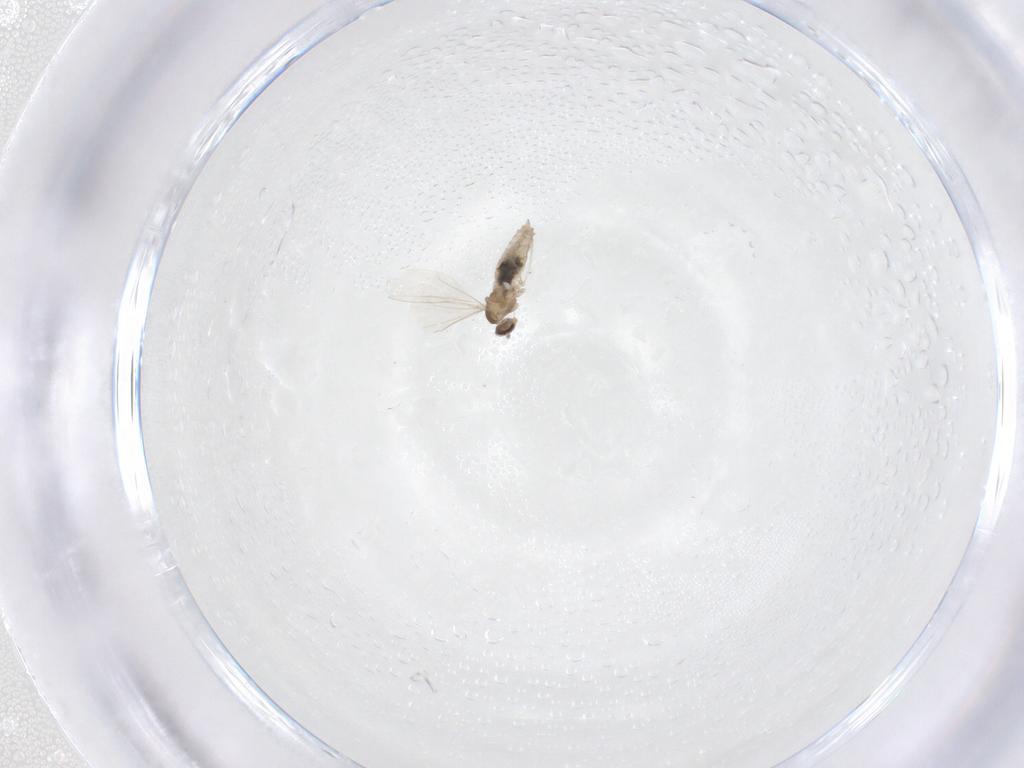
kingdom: Animalia
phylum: Arthropoda
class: Insecta
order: Diptera
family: Cecidomyiidae
